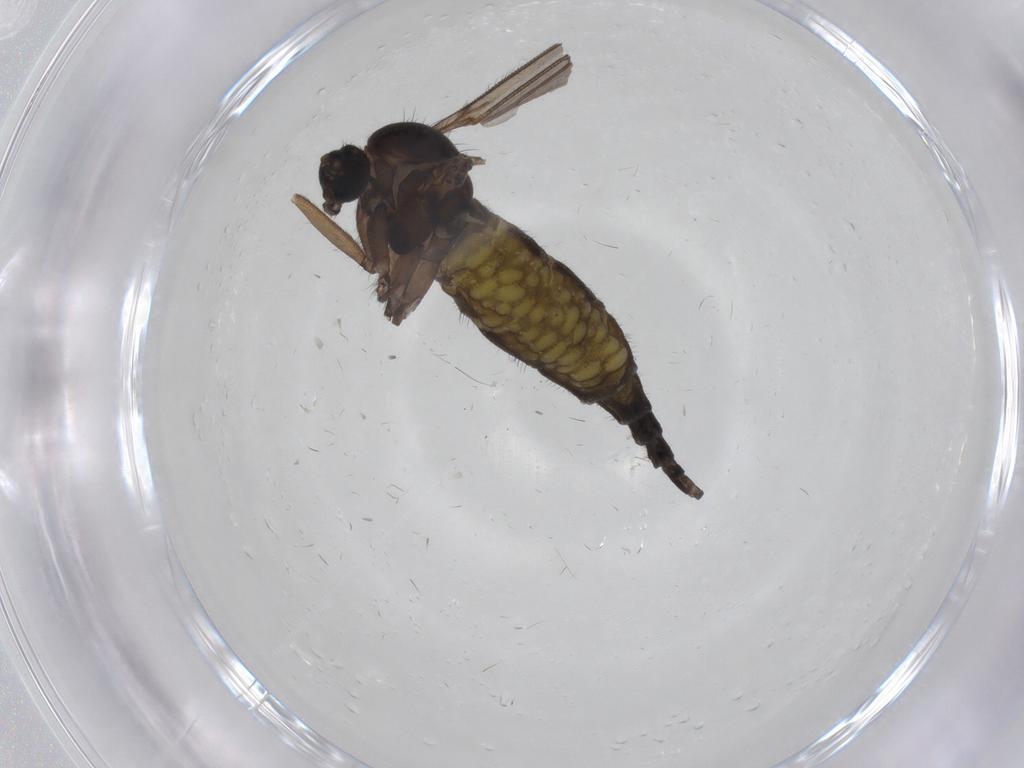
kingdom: Animalia
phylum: Arthropoda
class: Insecta
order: Diptera
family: Sciaridae
